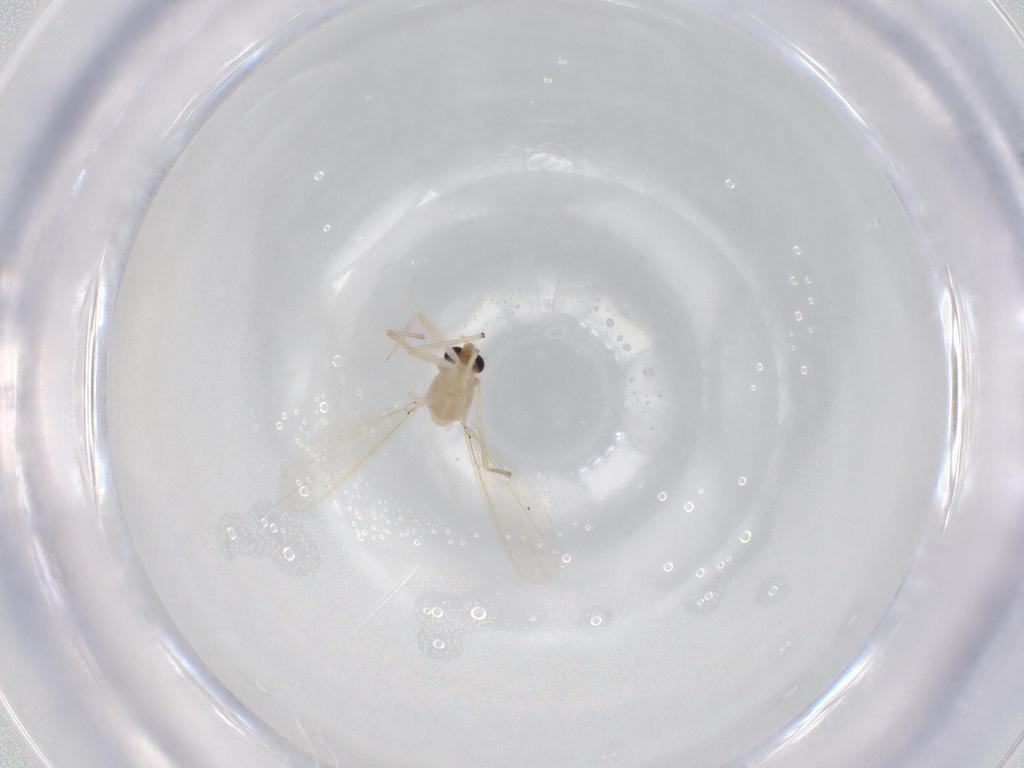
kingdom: Animalia
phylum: Arthropoda
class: Insecta
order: Diptera
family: Chironomidae
